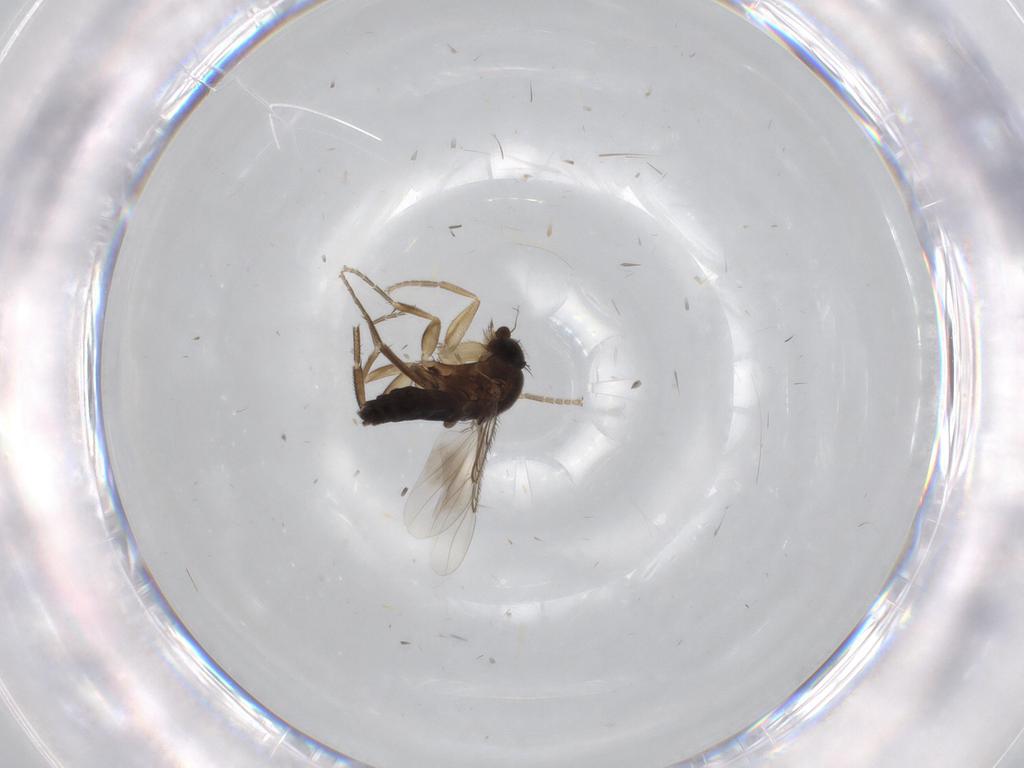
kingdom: Animalia
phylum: Arthropoda
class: Insecta
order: Diptera
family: Phoridae
